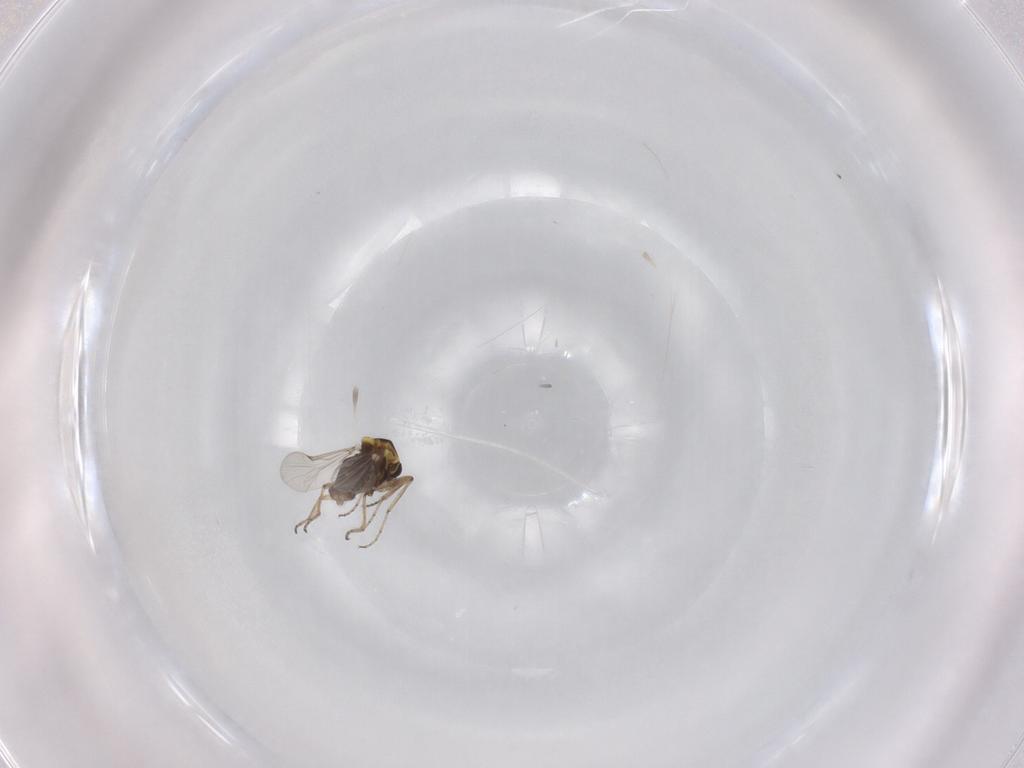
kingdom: Animalia
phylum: Arthropoda
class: Insecta
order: Diptera
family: Ceratopogonidae
